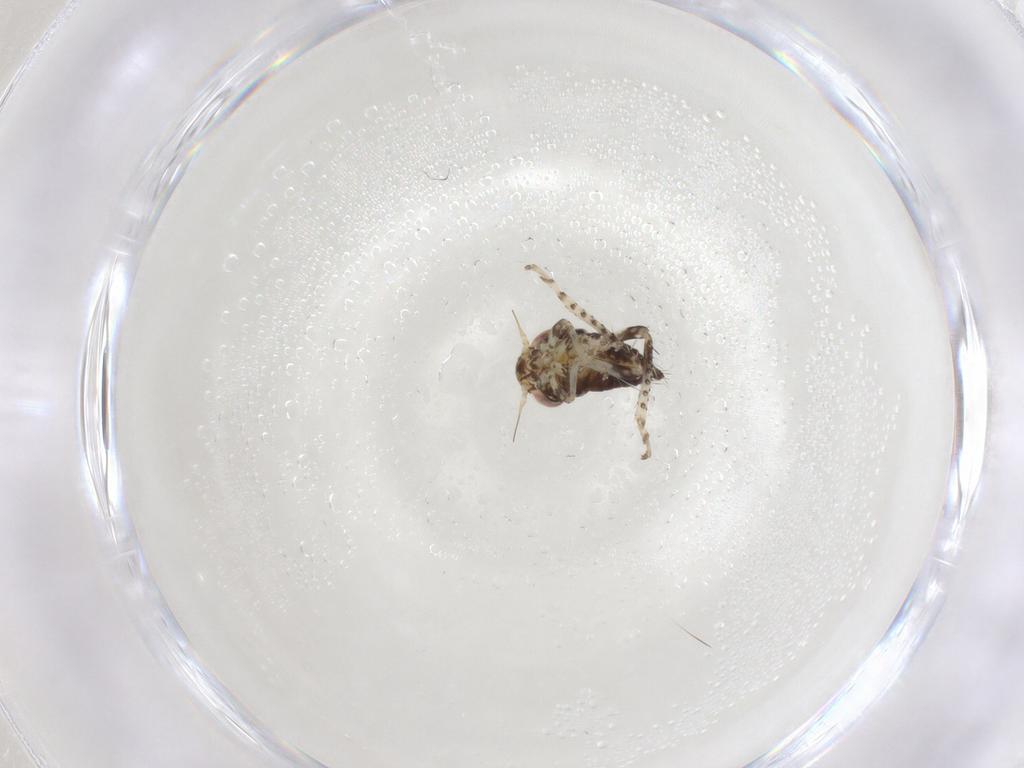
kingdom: Animalia
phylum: Arthropoda
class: Insecta
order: Hemiptera
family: Cicadellidae
